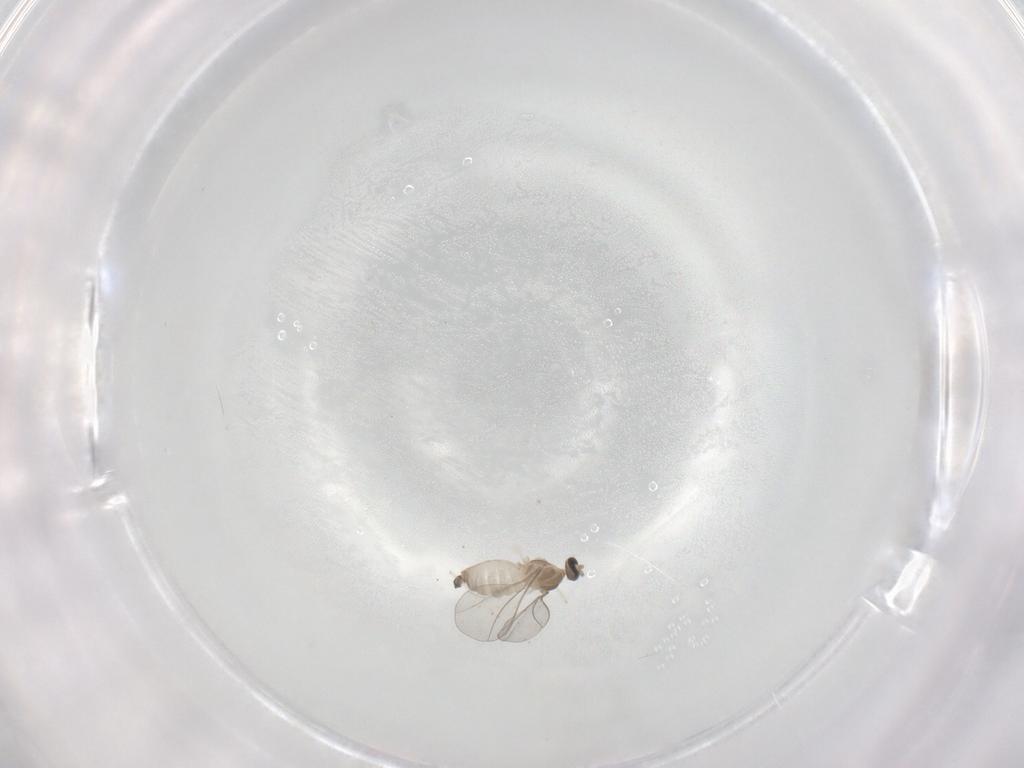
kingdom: Animalia
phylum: Arthropoda
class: Insecta
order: Diptera
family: Cecidomyiidae
